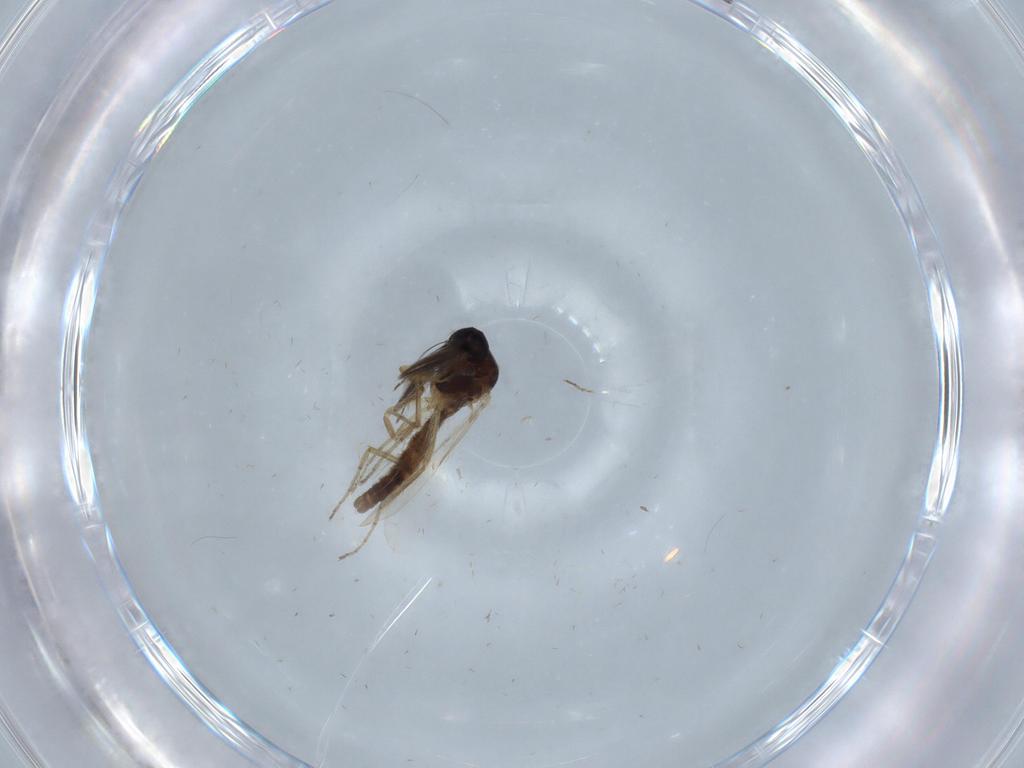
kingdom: Animalia
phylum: Arthropoda
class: Insecta
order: Diptera
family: Ceratopogonidae
